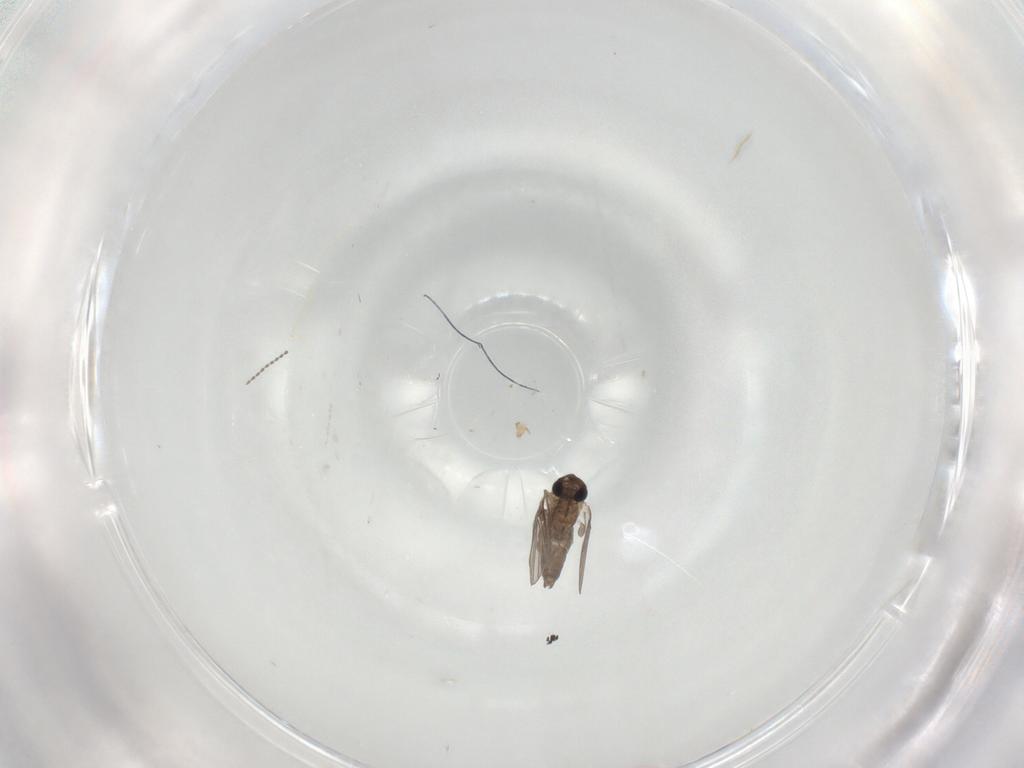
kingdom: Animalia
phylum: Arthropoda
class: Insecta
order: Diptera
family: Psychodidae
